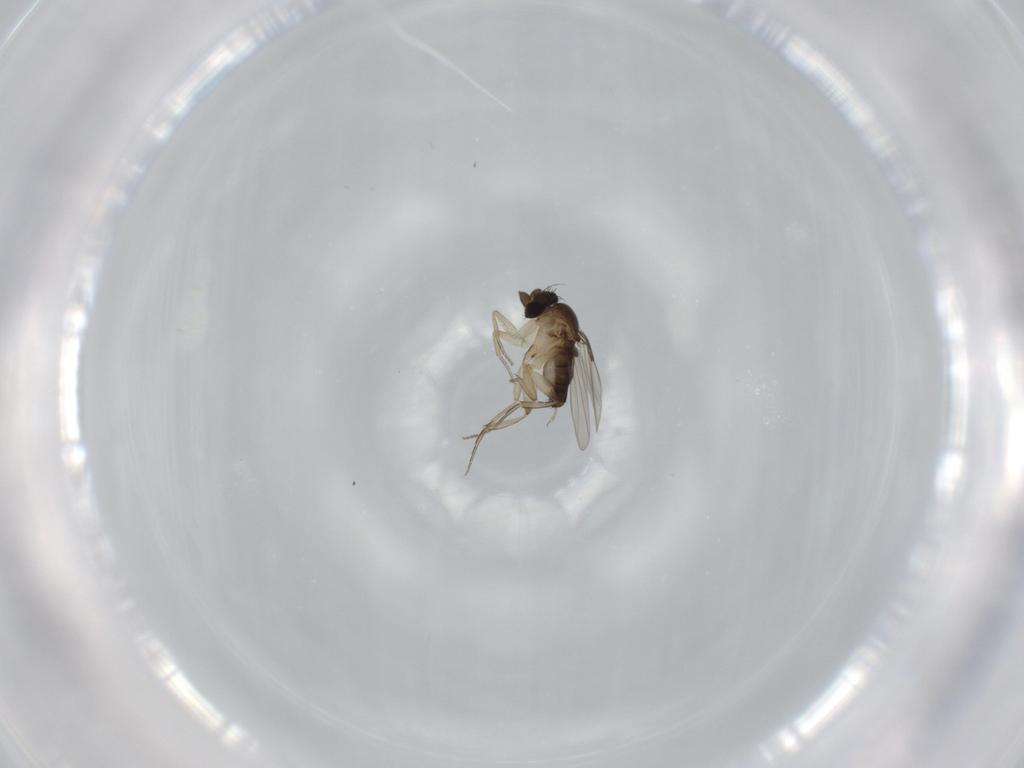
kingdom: Animalia
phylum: Arthropoda
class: Insecta
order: Diptera
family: Phoridae
